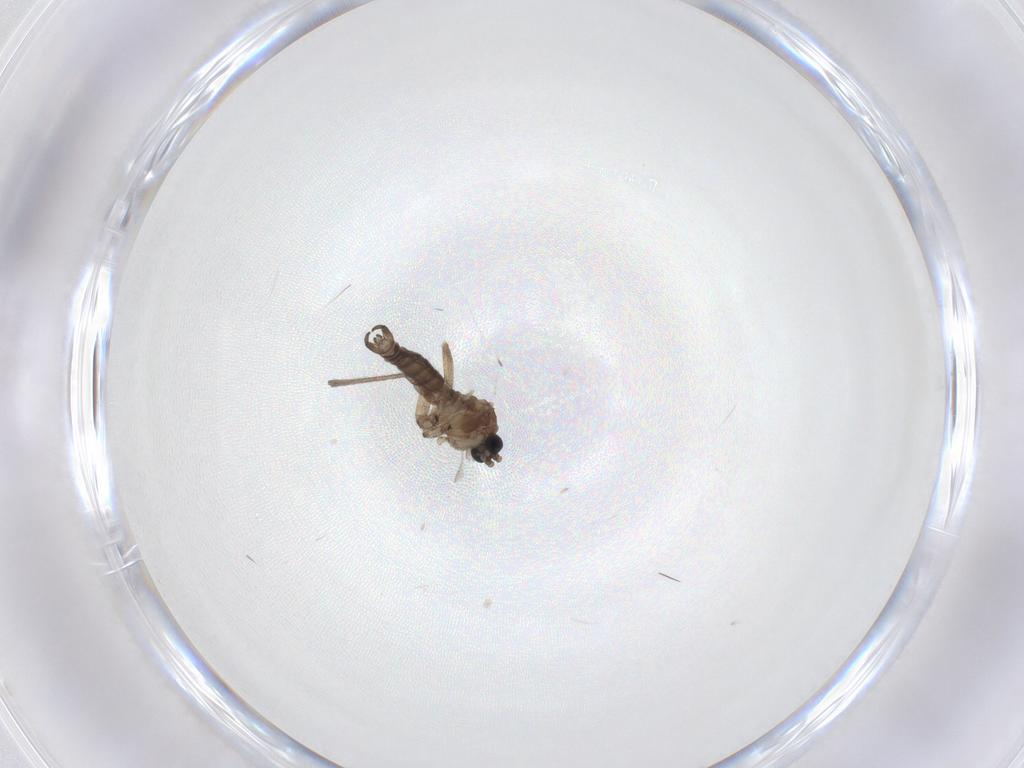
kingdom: Animalia
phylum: Arthropoda
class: Insecta
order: Diptera
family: Sciaridae
